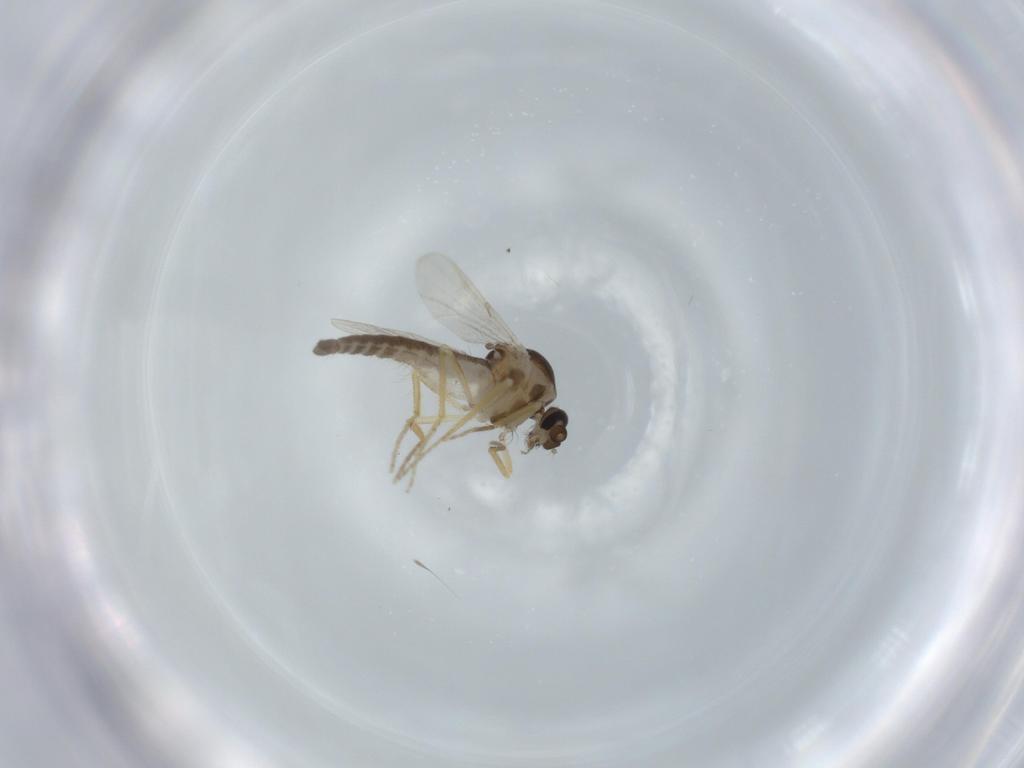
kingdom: Animalia
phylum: Arthropoda
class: Insecta
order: Diptera
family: Ceratopogonidae
